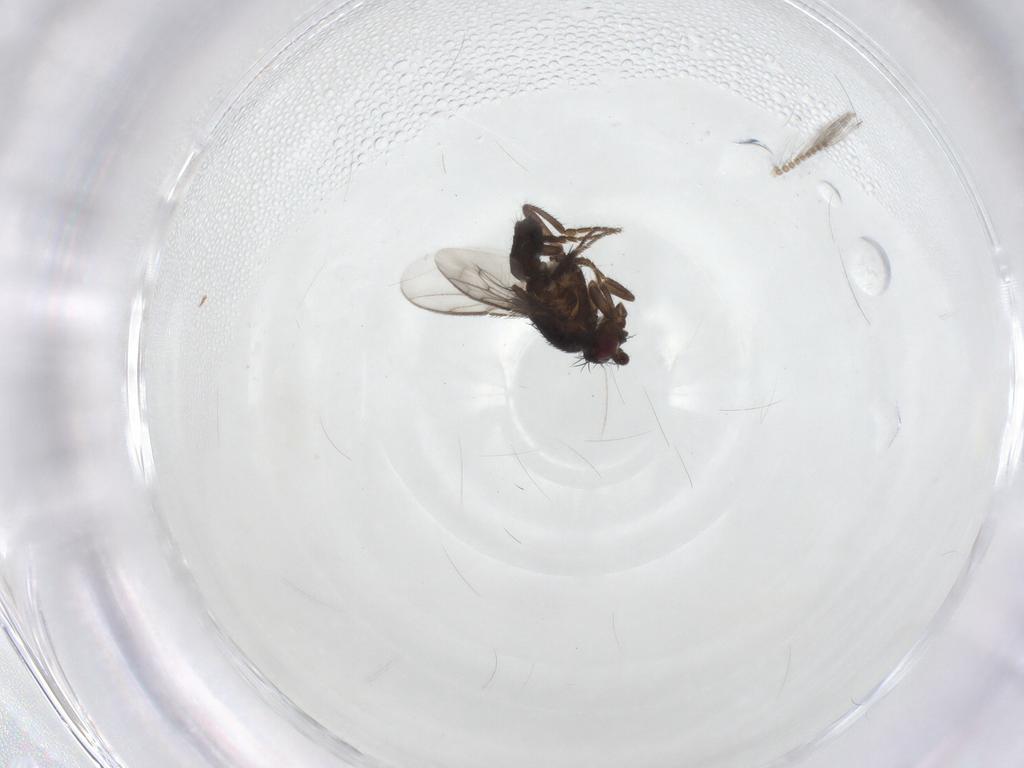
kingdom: Animalia
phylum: Arthropoda
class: Insecta
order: Diptera
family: Sphaeroceridae
